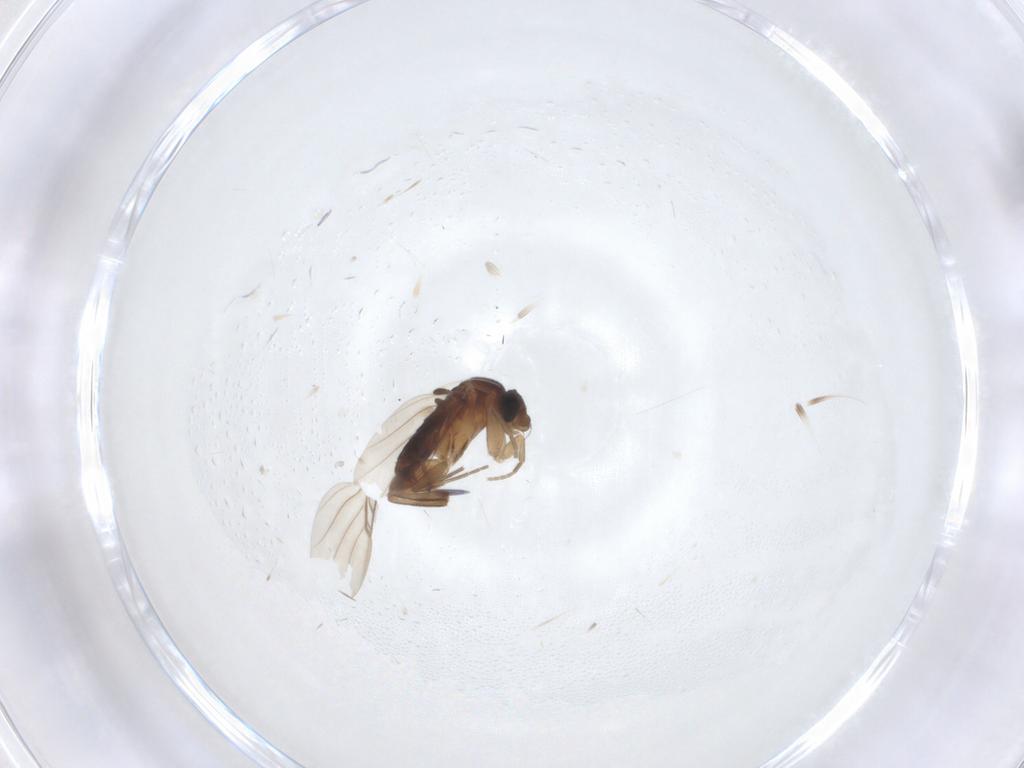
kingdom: Animalia
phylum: Arthropoda
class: Insecta
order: Diptera
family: Phoridae
